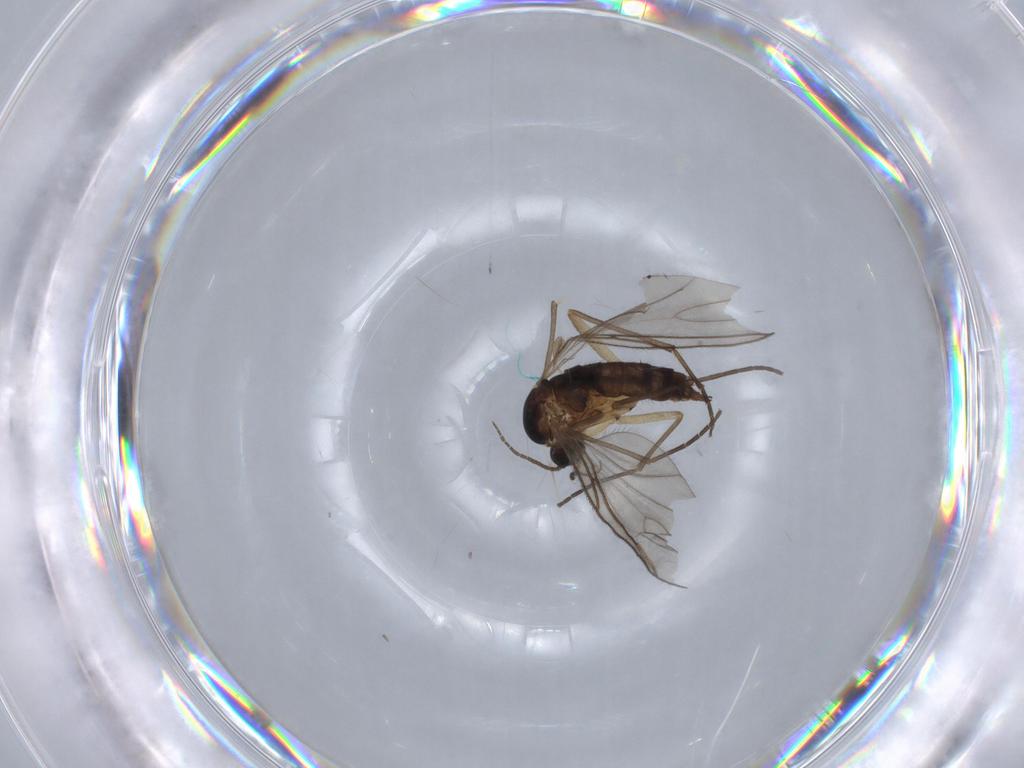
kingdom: Animalia
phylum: Arthropoda
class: Insecta
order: Diptera
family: Sciaridae
